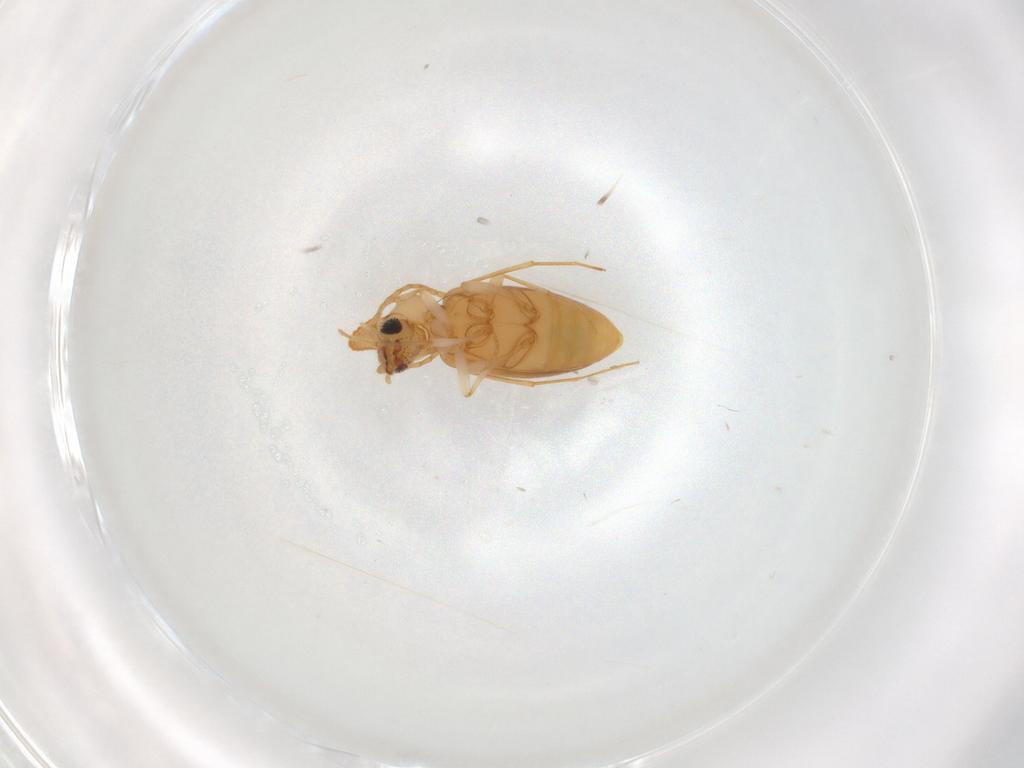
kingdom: Animalia
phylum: Arthropoda
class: Insecta
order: Coleoptera
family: Anthicidae
